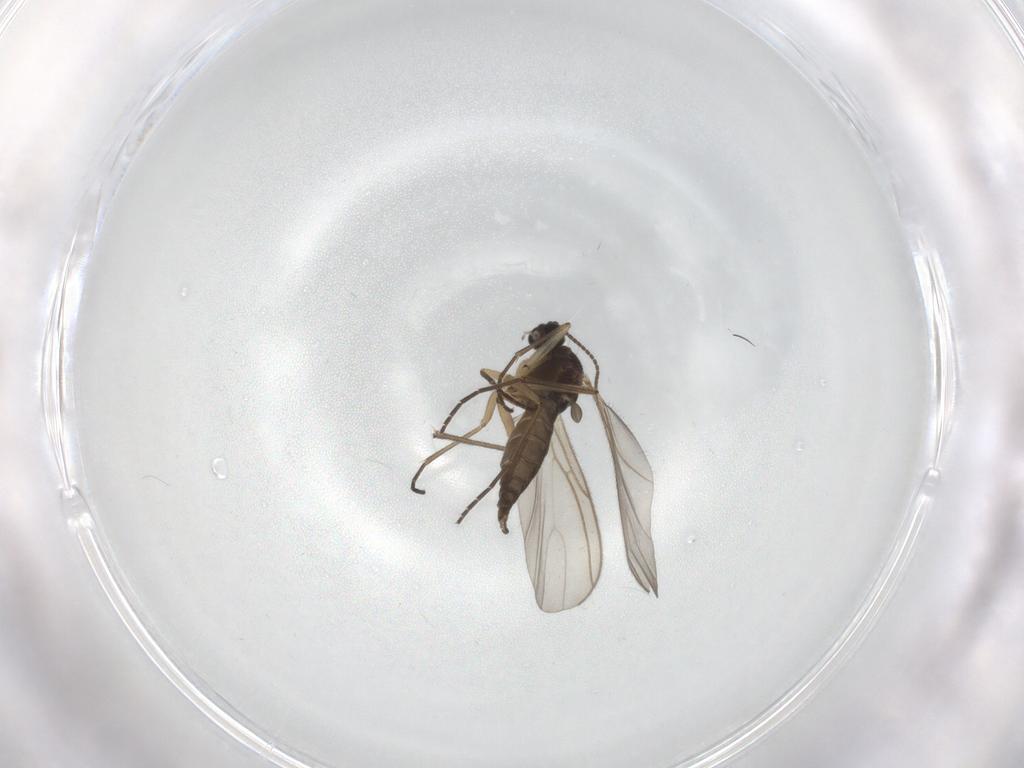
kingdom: Animalia
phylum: Arthropoda
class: Insecta
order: Diptera
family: Sciaridae
